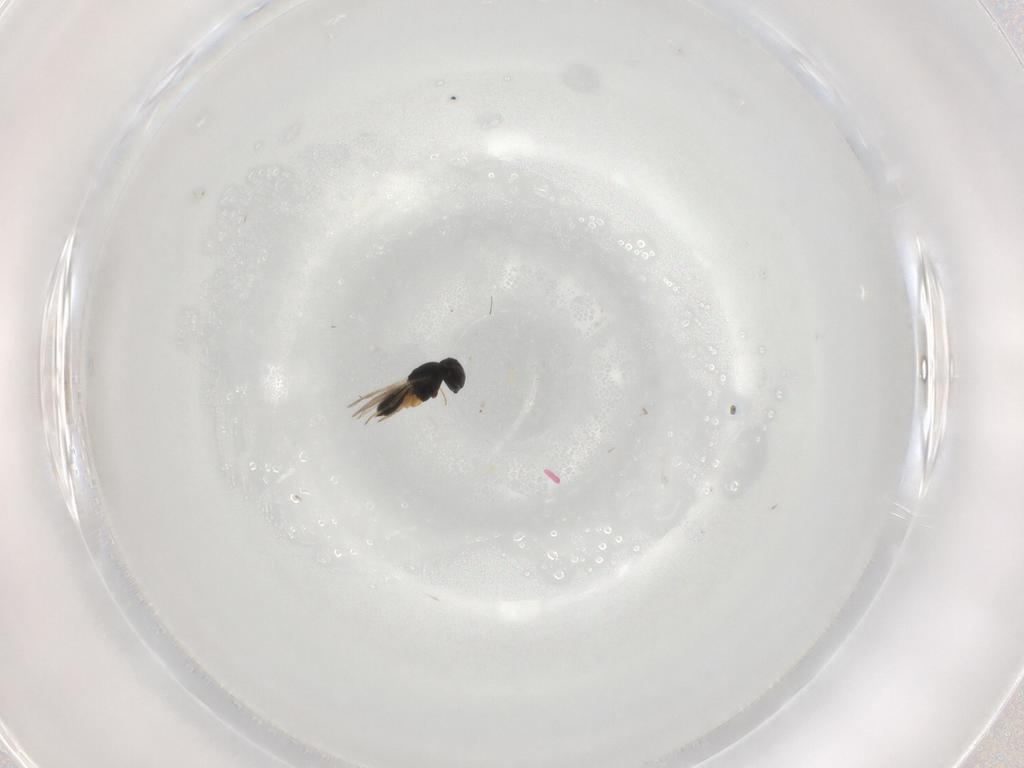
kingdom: Animalia
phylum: Arthropoda
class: Insecta
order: Hymenoptera
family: Scelionidae
